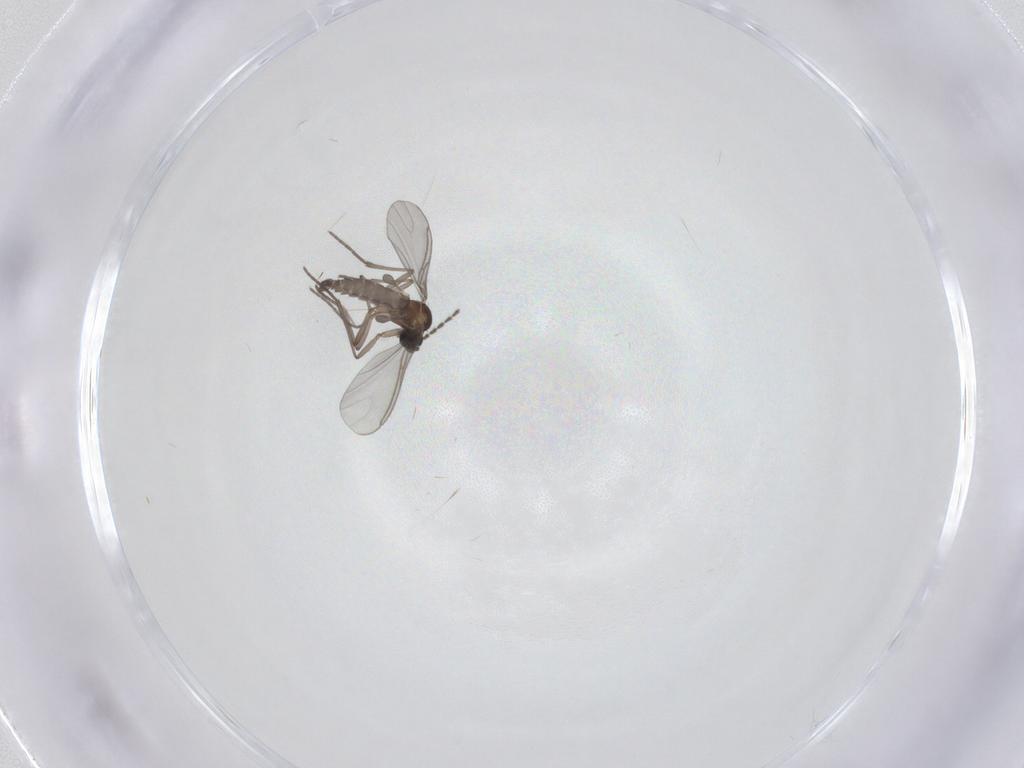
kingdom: Animalia
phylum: Arthropoda
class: Insecta
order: Diptera
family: Sciaridae
